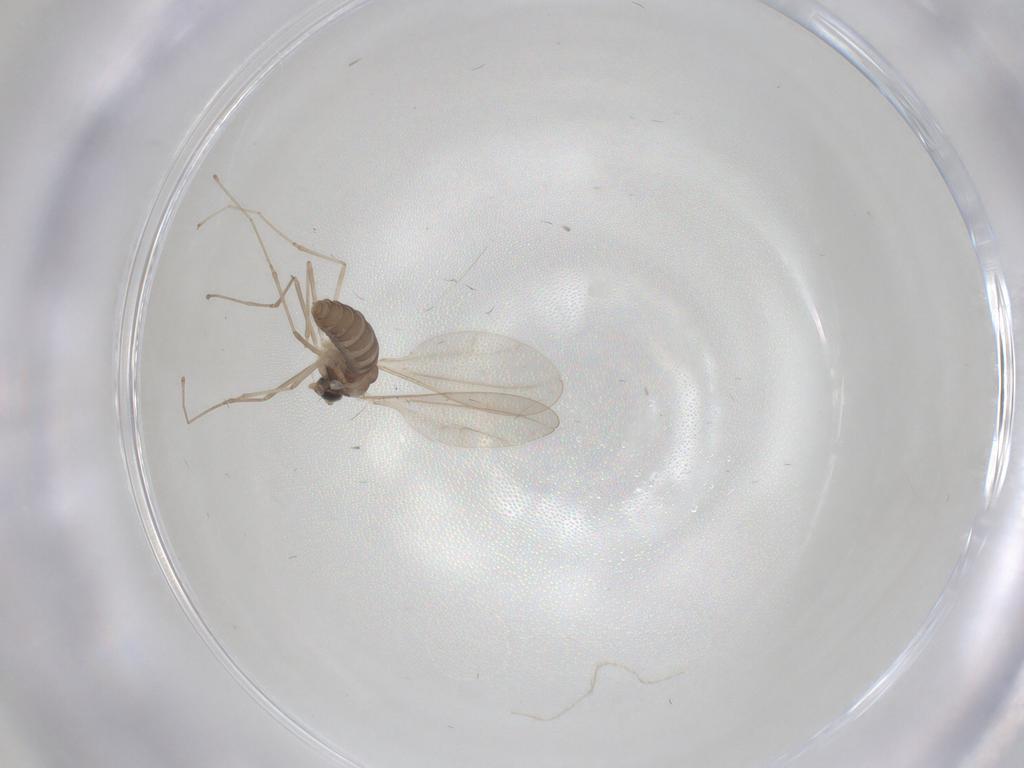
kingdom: Animalia
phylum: Arthropoda
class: Insecta
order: Diptera
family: Cecidomyiidae
